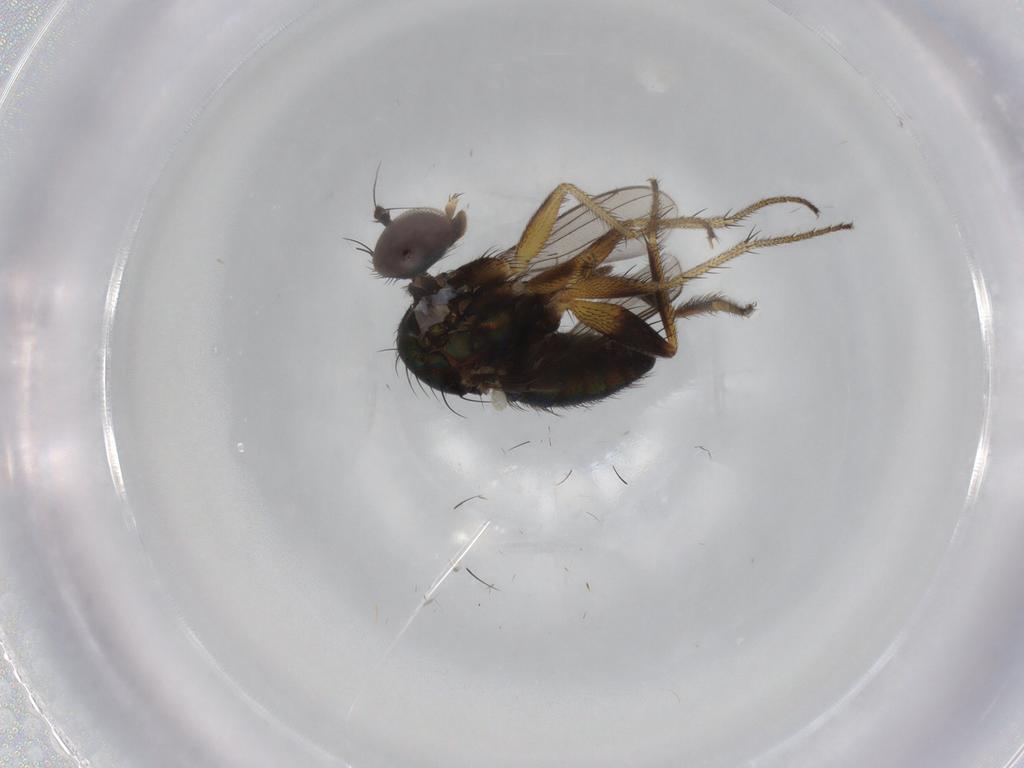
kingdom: Animalia
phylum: Arthropoda
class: Insecta
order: Diptera
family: Dolichopodidae
